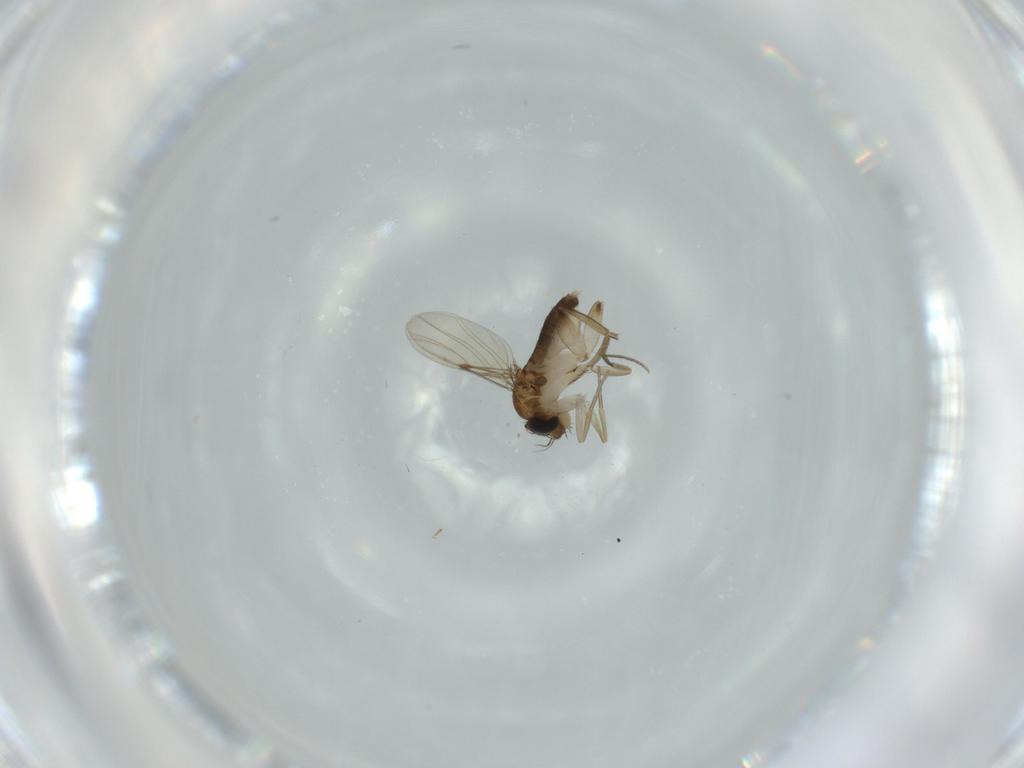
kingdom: Animalia
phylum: Arthropoda
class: Insecta
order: Diptera
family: Phoridae
